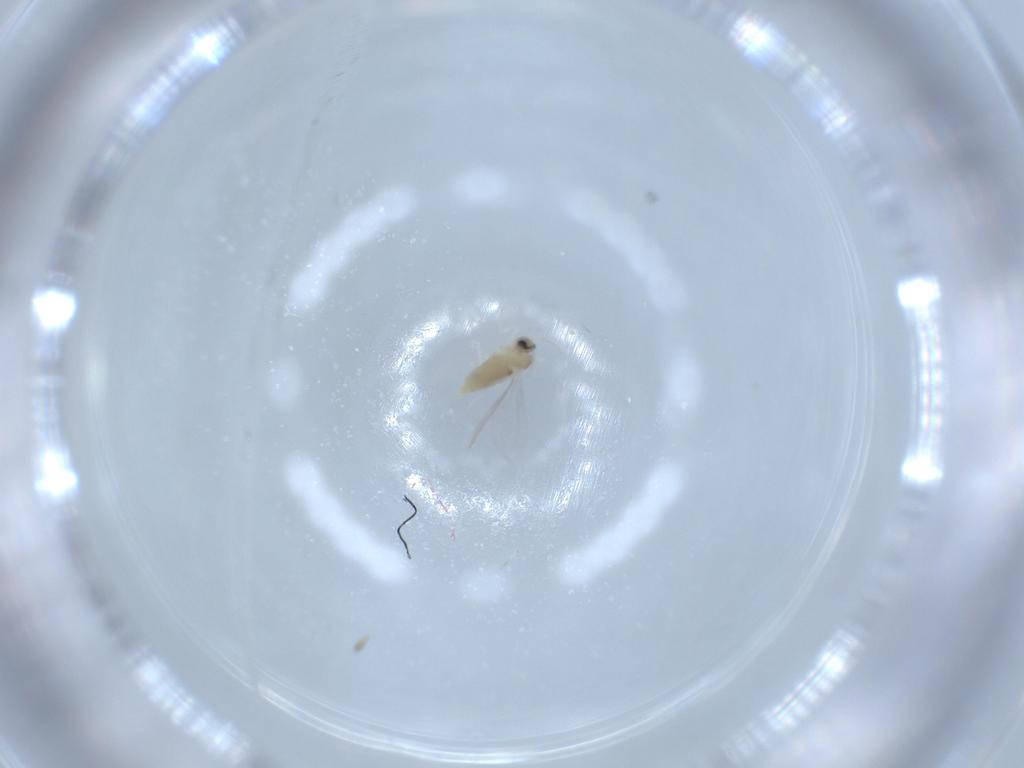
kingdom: Animalia
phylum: Arthropoda
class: Insecta
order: Diptera
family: Cecidomyiidae
